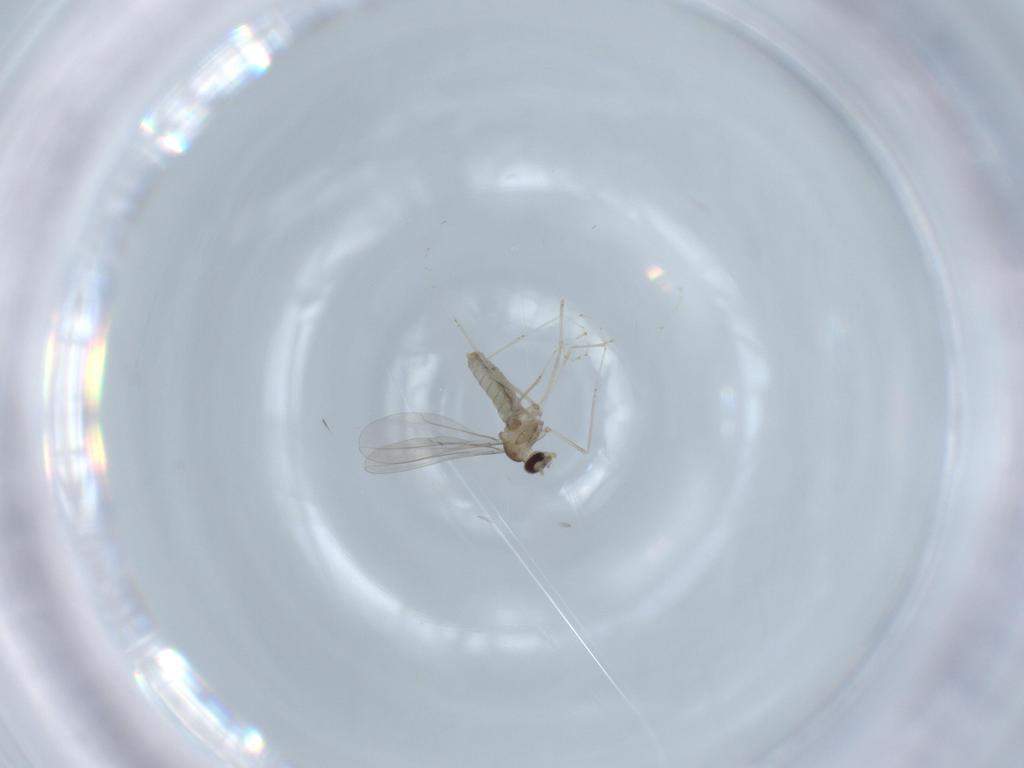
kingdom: Animalia
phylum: Arthropoda
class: Insecta
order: Diptera
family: Cecidomyiidae
